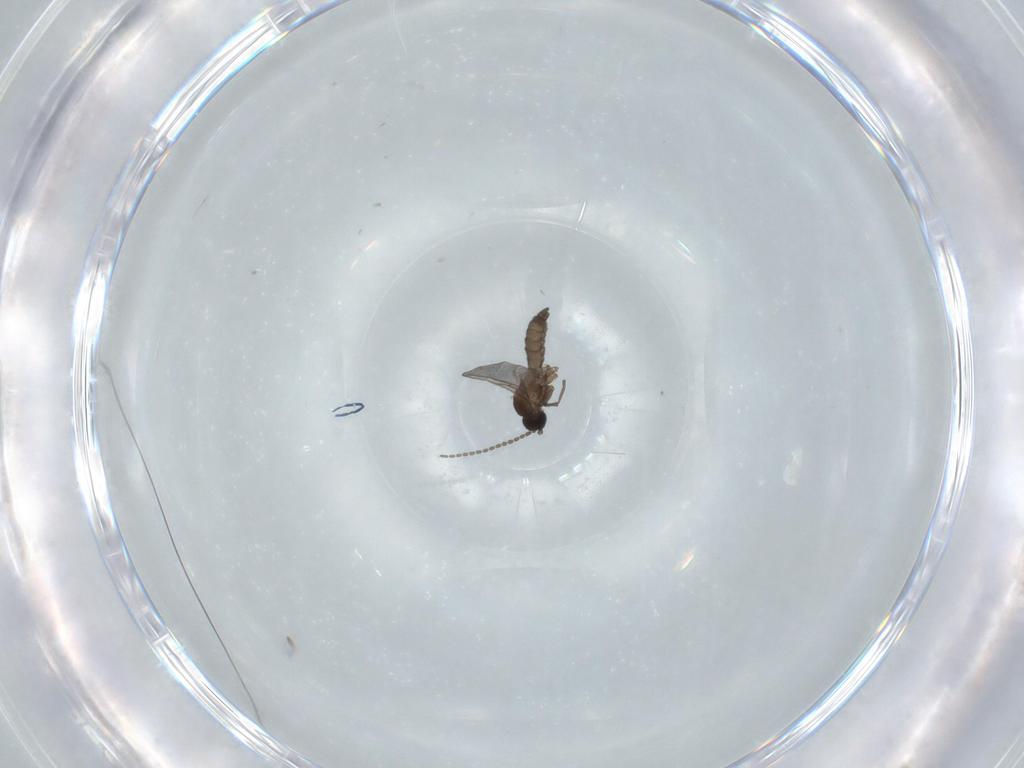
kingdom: Animalia
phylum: Arthropoda
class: Insecta
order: Diptera
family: Sciaridae
